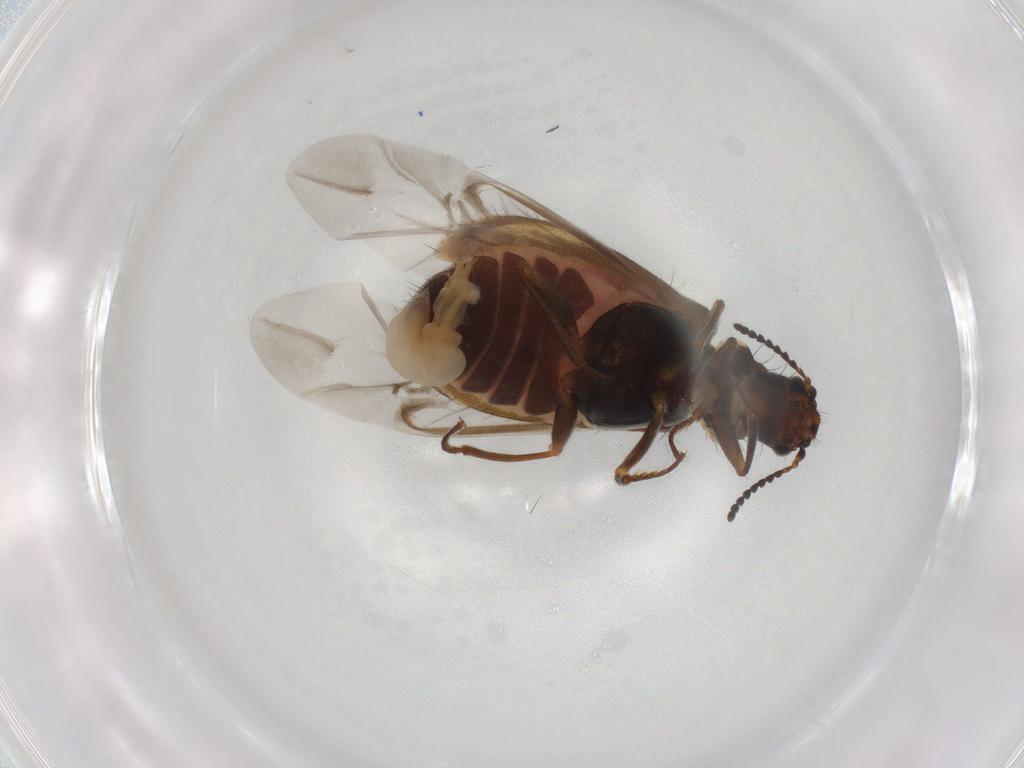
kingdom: Animalia
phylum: Arthropoda
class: Insecta
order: Coleoptera
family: Melyridae
